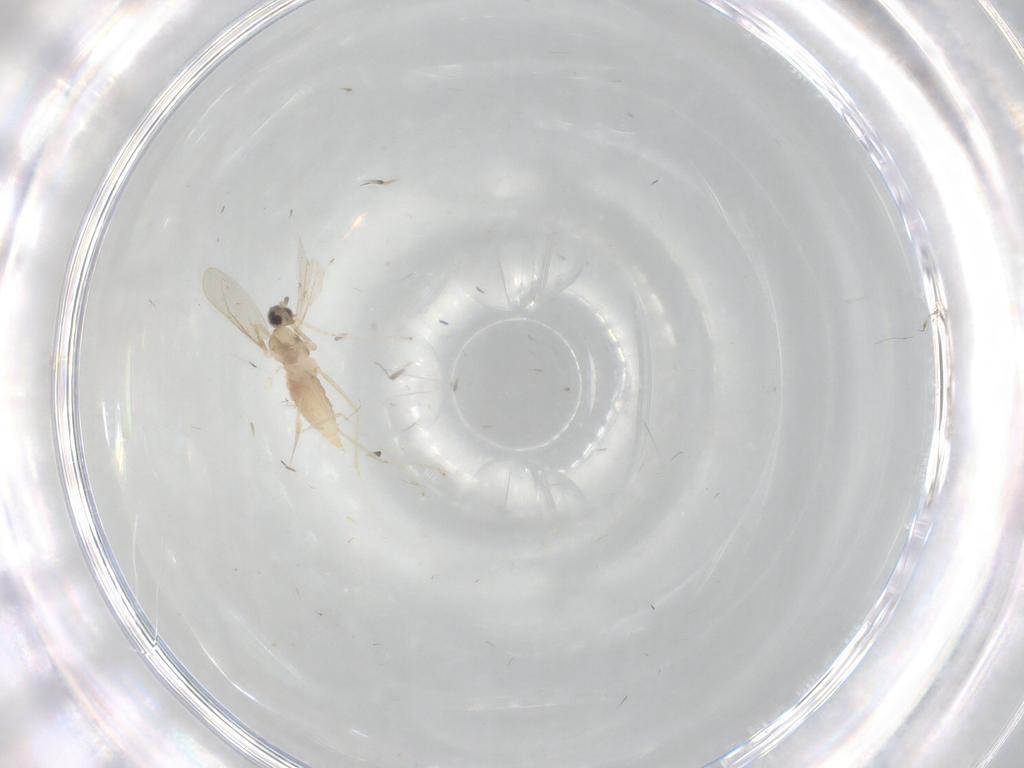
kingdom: Animalia
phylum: Arthropoda
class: Insecta
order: Diptera
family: Cecidomyiidae
